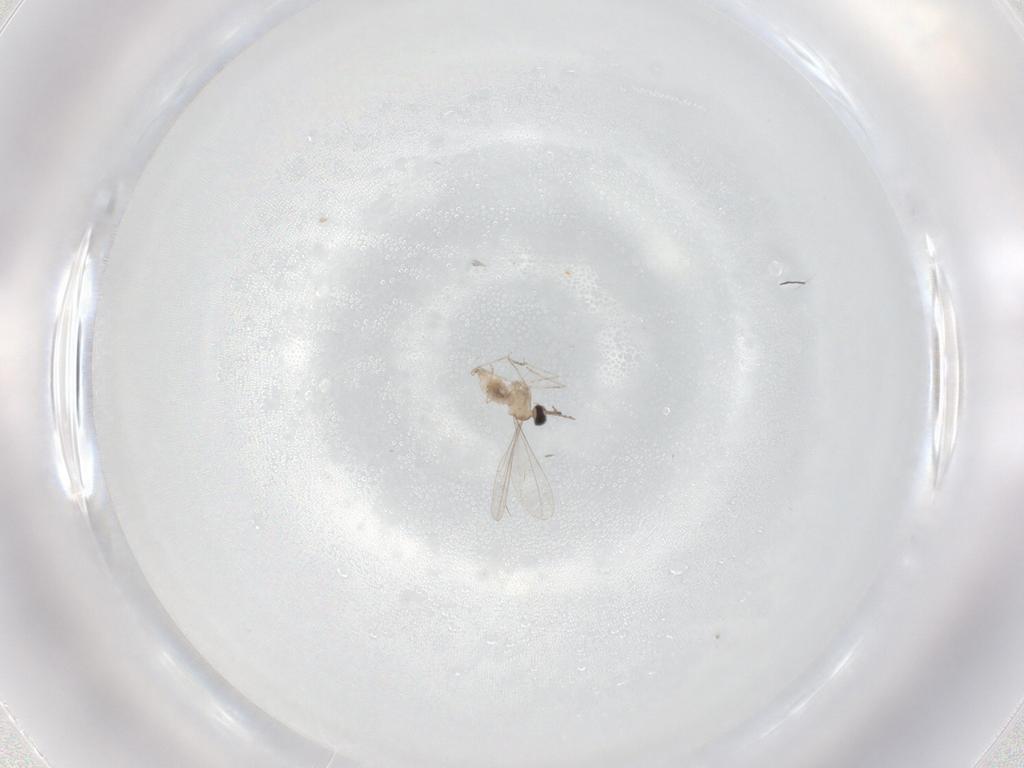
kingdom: Animalia
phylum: Arthropoda
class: Insecta
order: Diptera
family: Cecidomyiidae
